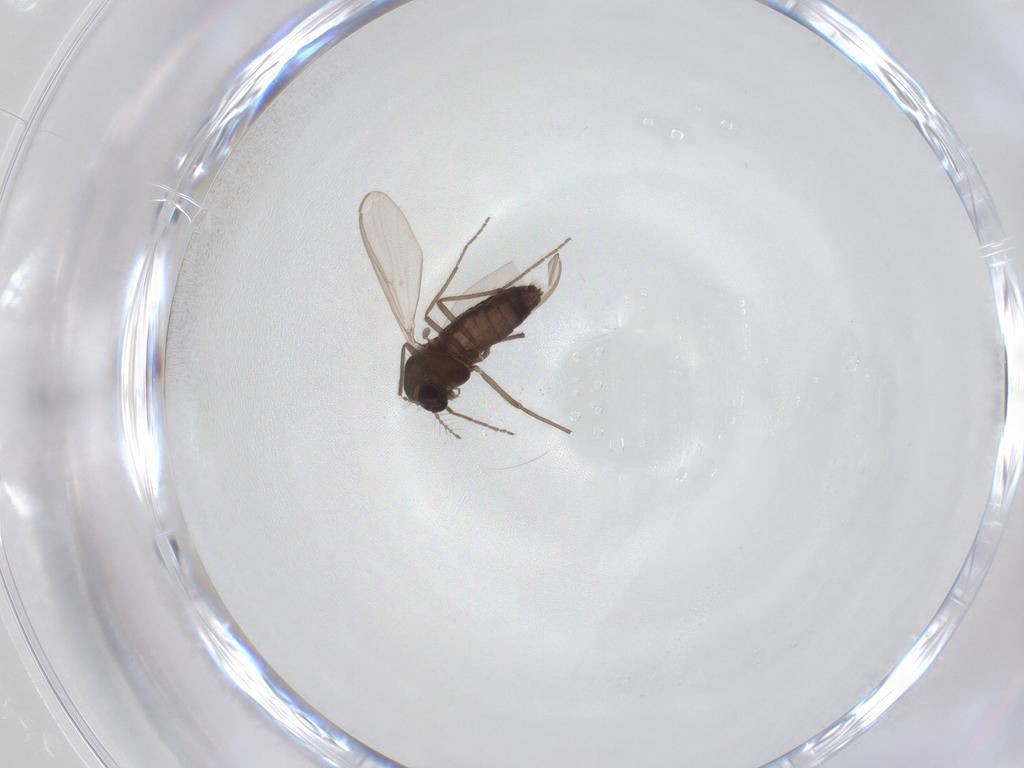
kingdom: Animalia
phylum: Arthropoda
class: Insecta
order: Diptera
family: Chironomidae
